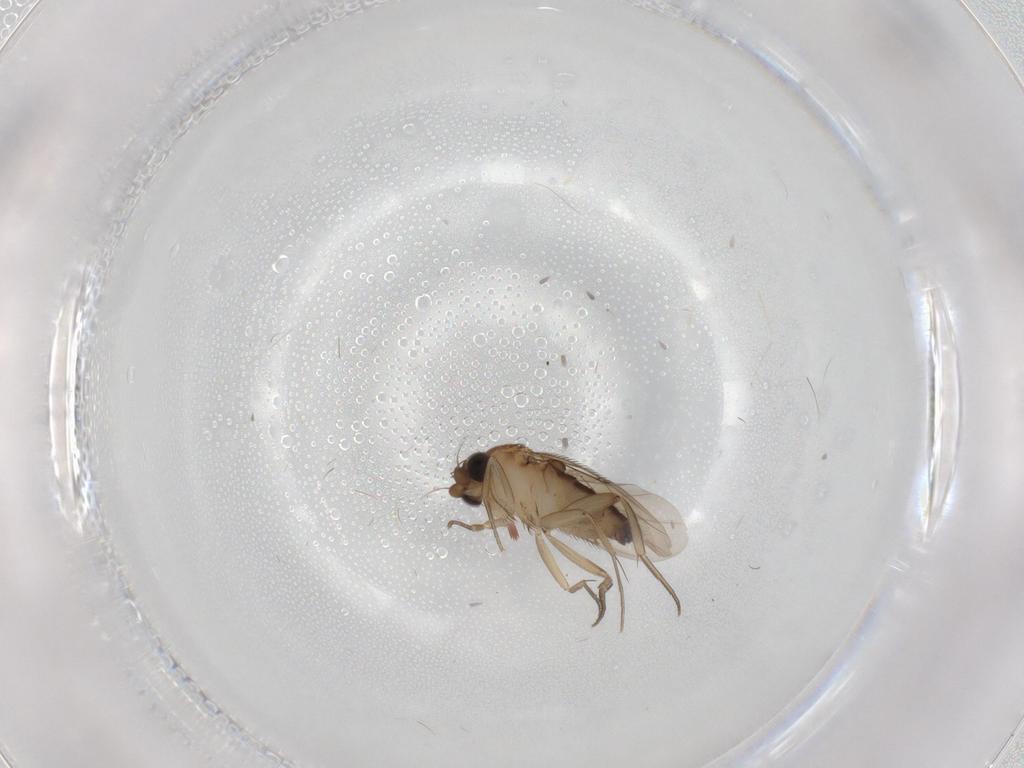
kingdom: Animalia
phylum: Arthropoda
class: Insecta
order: Diptera
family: Phoridae
